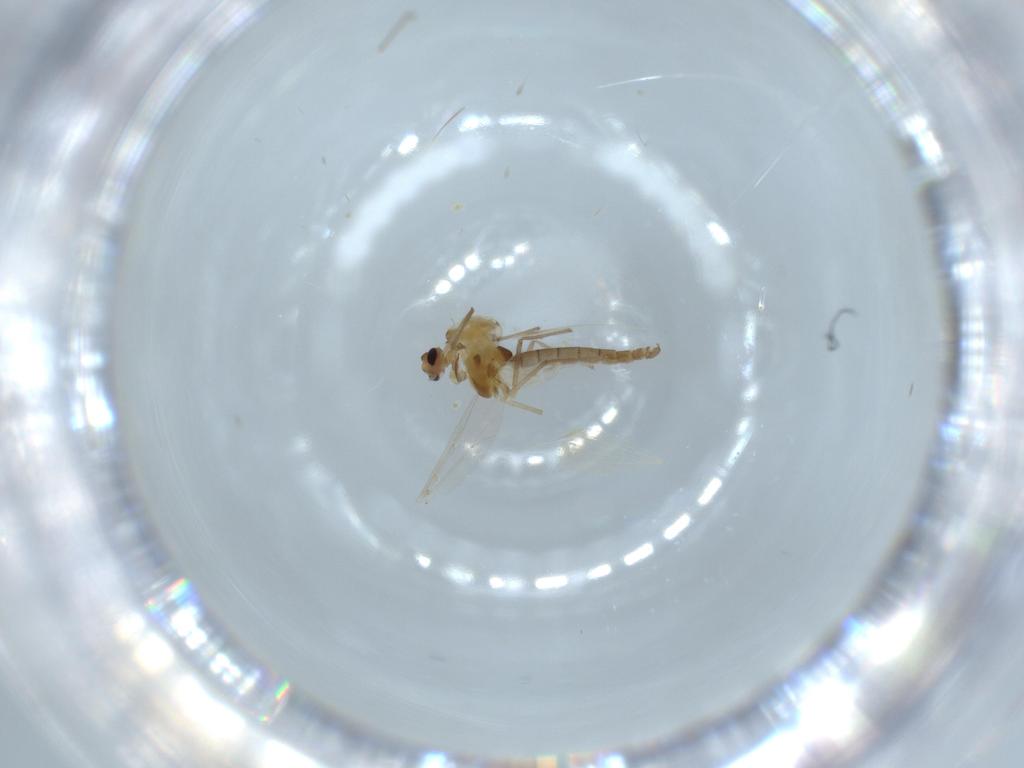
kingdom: Animalia
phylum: Arthropoda
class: Insecta
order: Diptera
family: Chironomidae
